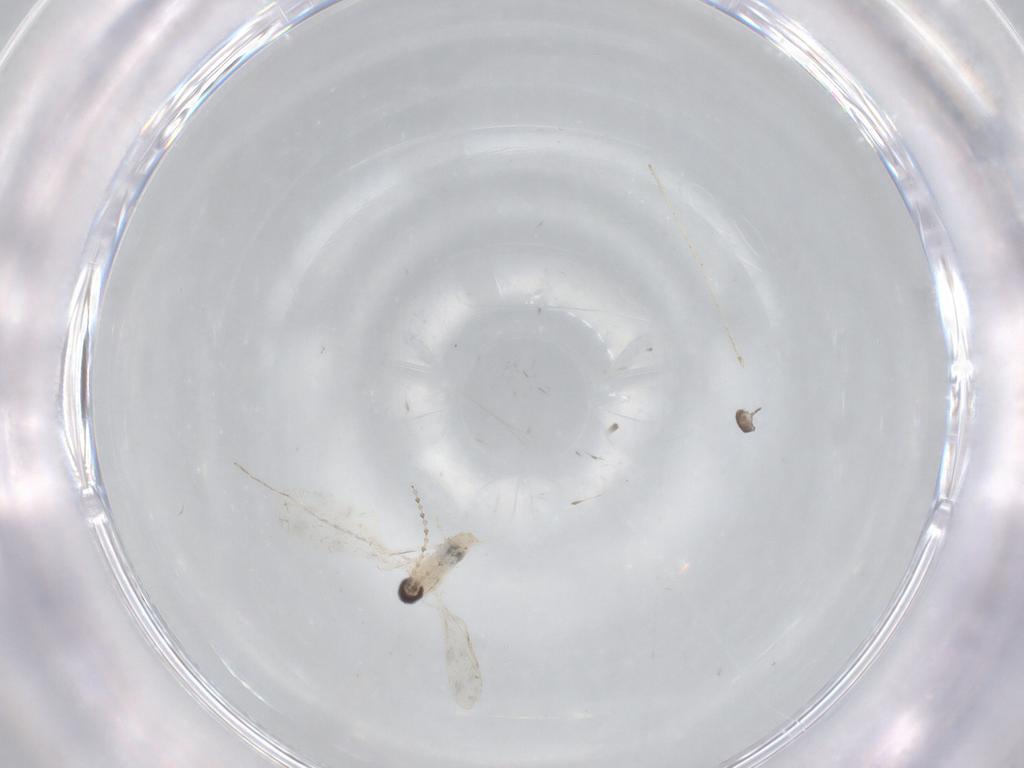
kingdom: Animalia
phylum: Arthropoda
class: Insecta
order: Diptera
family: Cecidomyiidae
